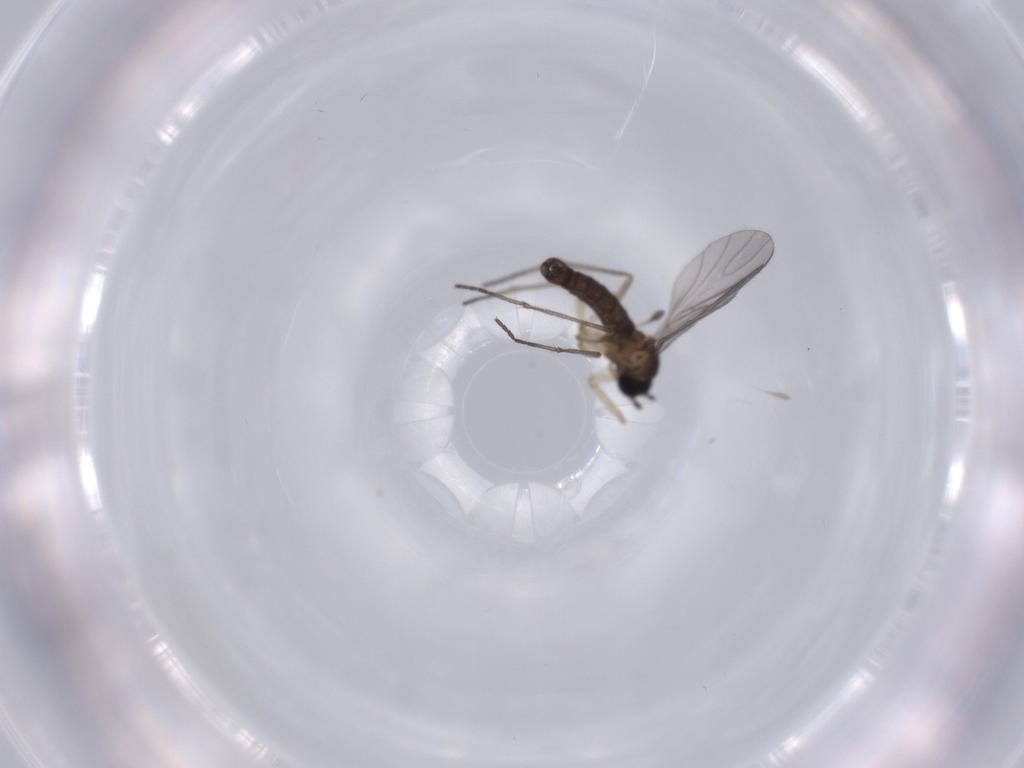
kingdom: Animalia
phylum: Arthropoda
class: Insecta
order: Diptera
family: Sciaridae
